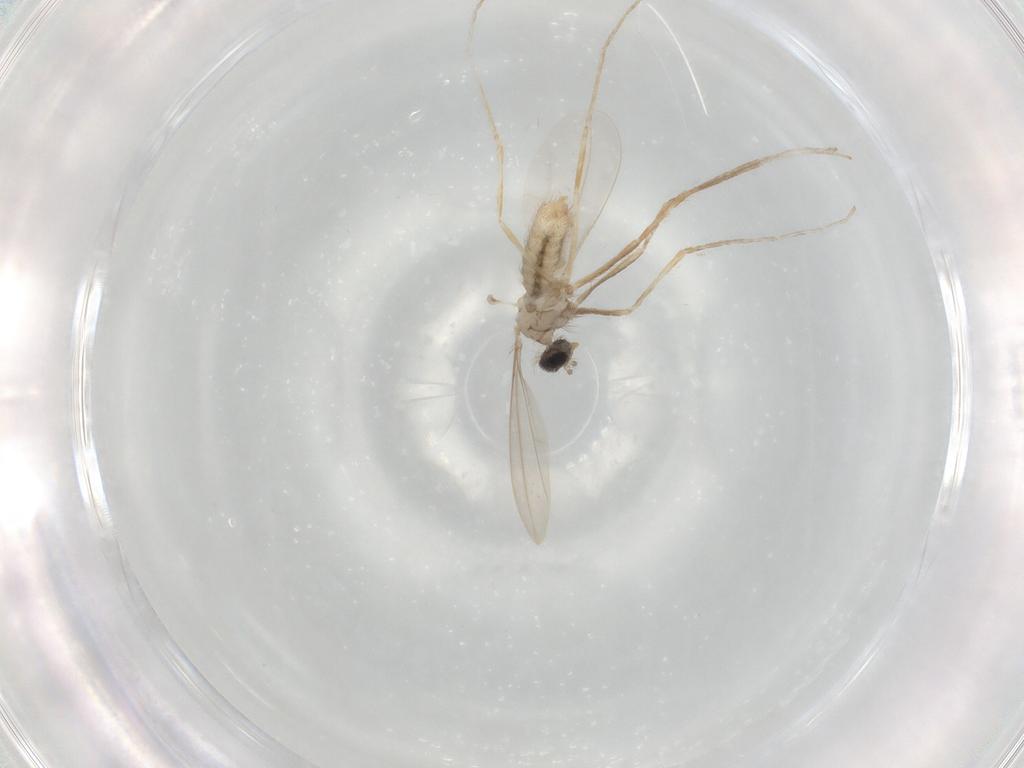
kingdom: Animalia
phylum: Arthropoda
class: Insecta
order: Diptera
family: Cecidomyiidae
